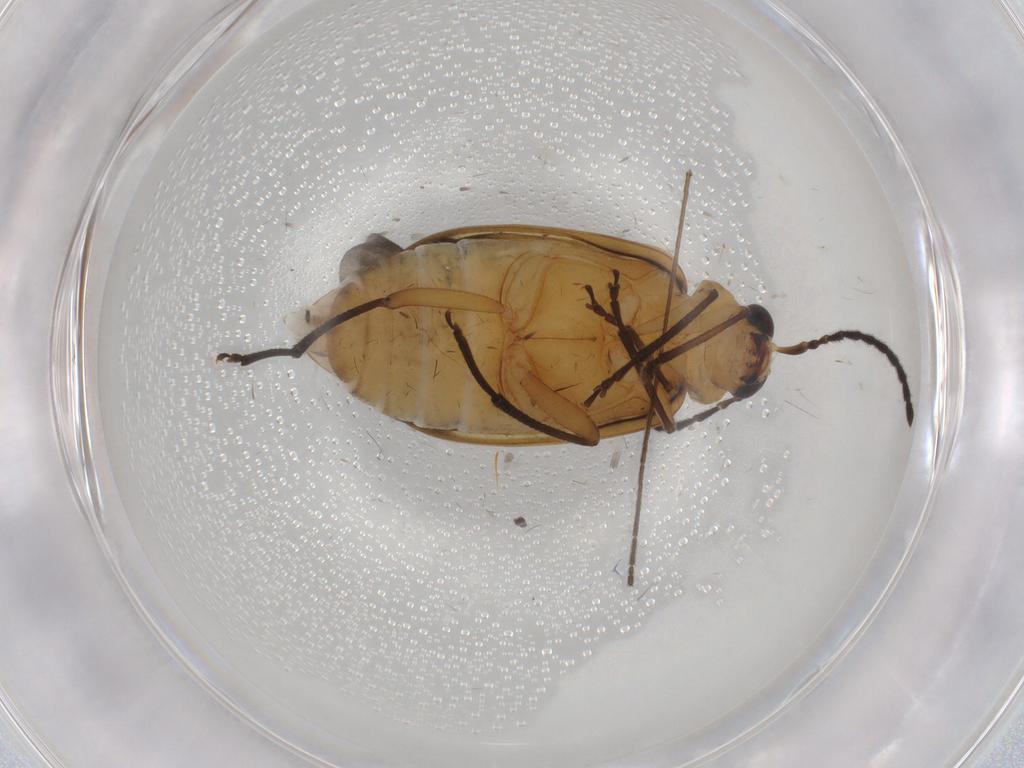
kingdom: Animalia
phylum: Arthropoda
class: Insecta
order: Coleoptera
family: Chrysomelidae
